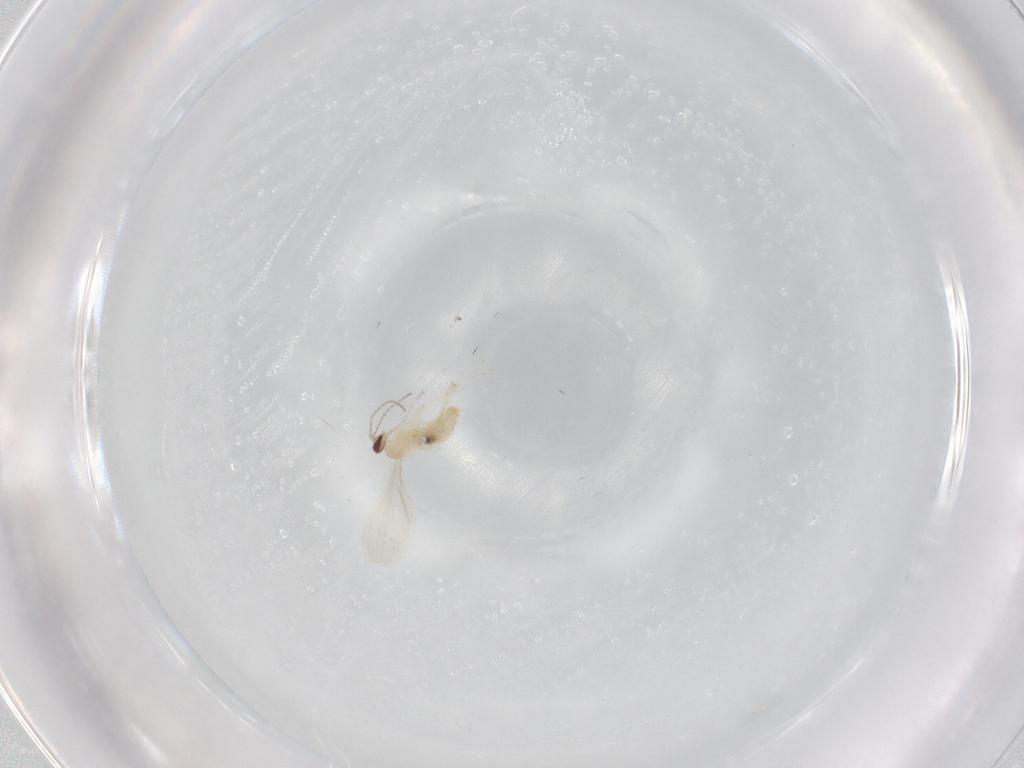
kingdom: Animalia
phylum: Arthropoda
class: Insecta
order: Diptera
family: Cecidomyiidae
